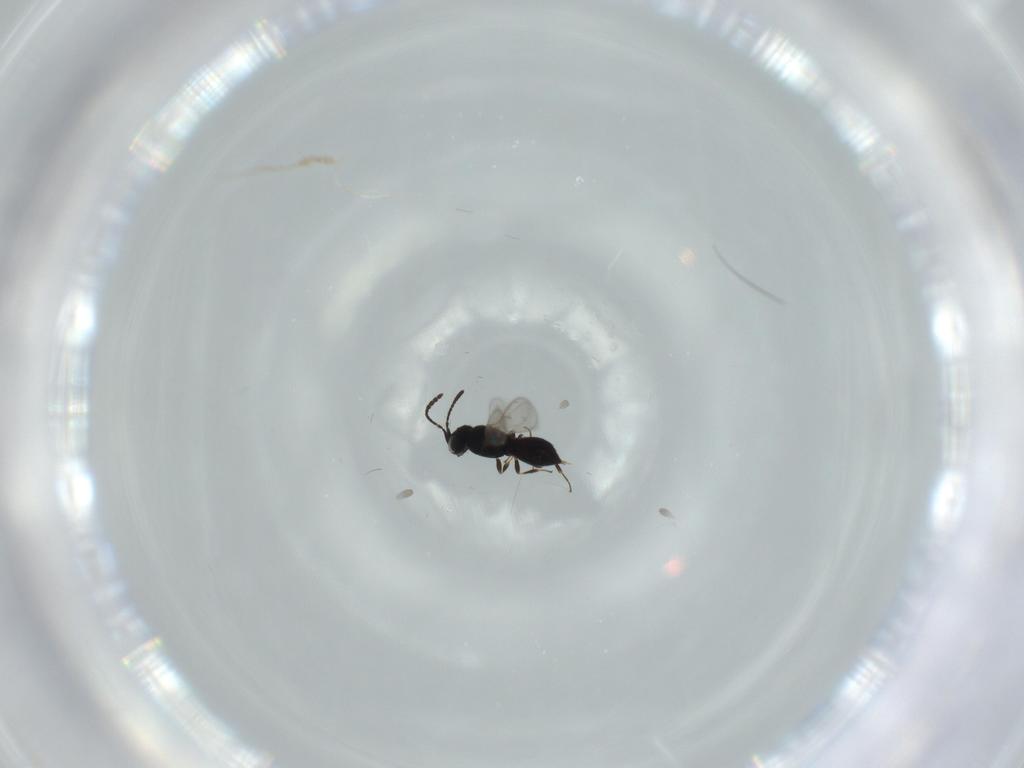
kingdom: Animalia
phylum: Arthropoda
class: Insecta
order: Hymenoptera
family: Scelionidae
